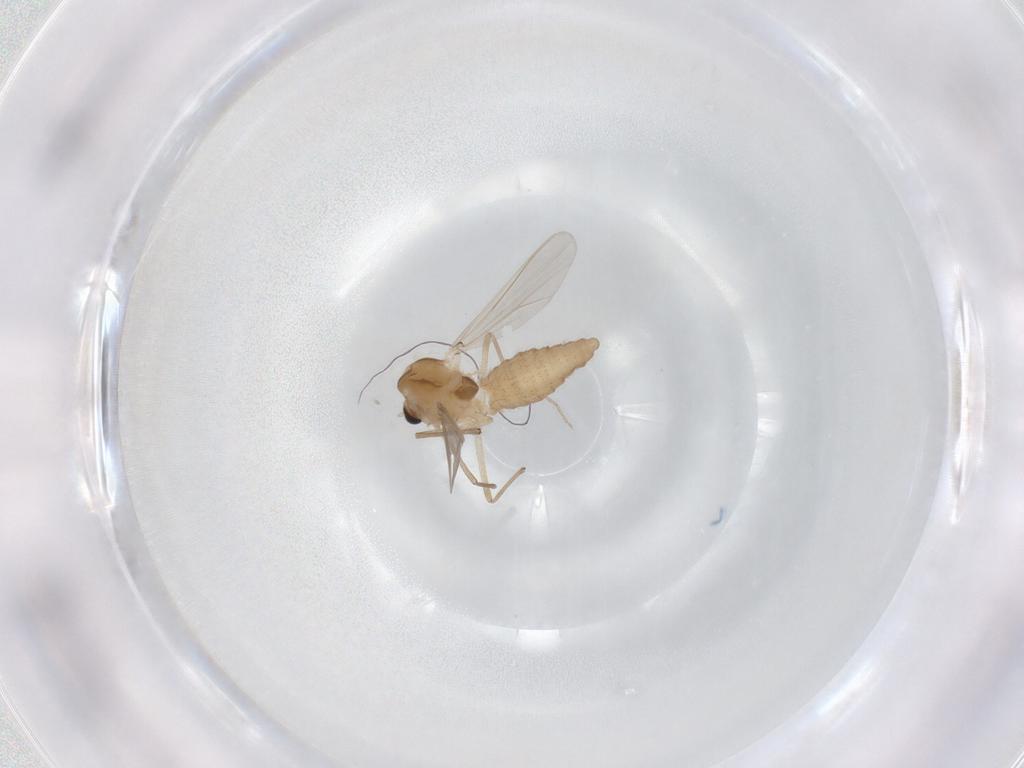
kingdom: Animalia
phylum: Arthropoda
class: Insecta
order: Diptera
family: Chironomidae
